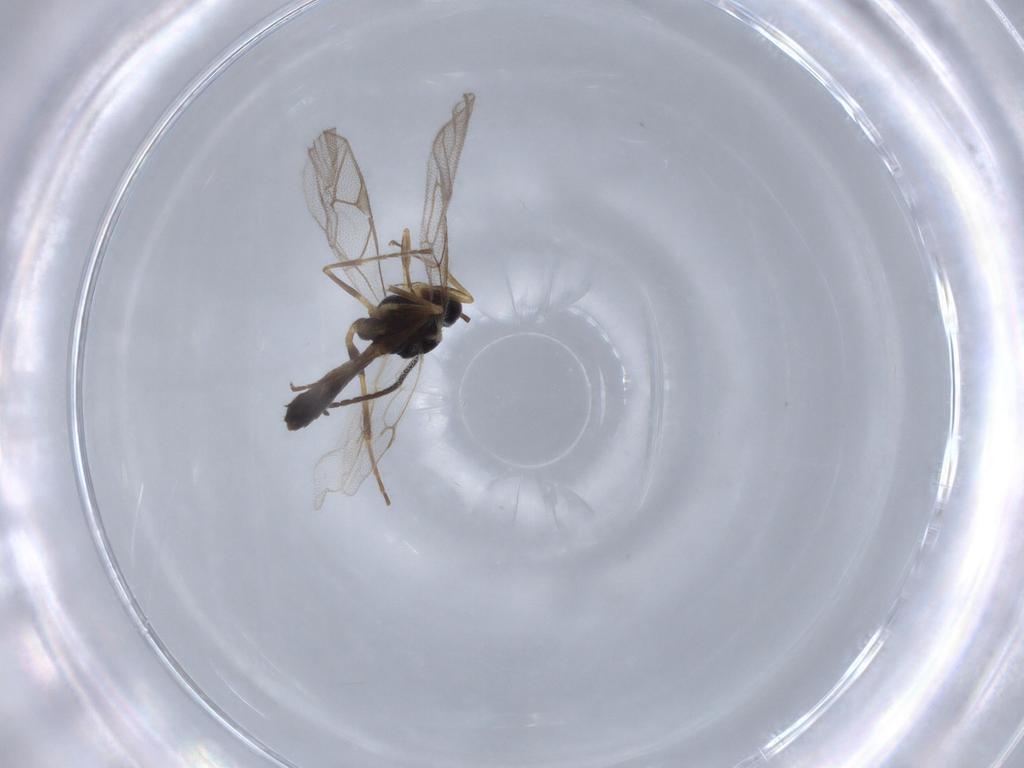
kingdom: Animalia
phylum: Arthropoda
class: Insecta
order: Hymenoptera
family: Ichneumonidae
